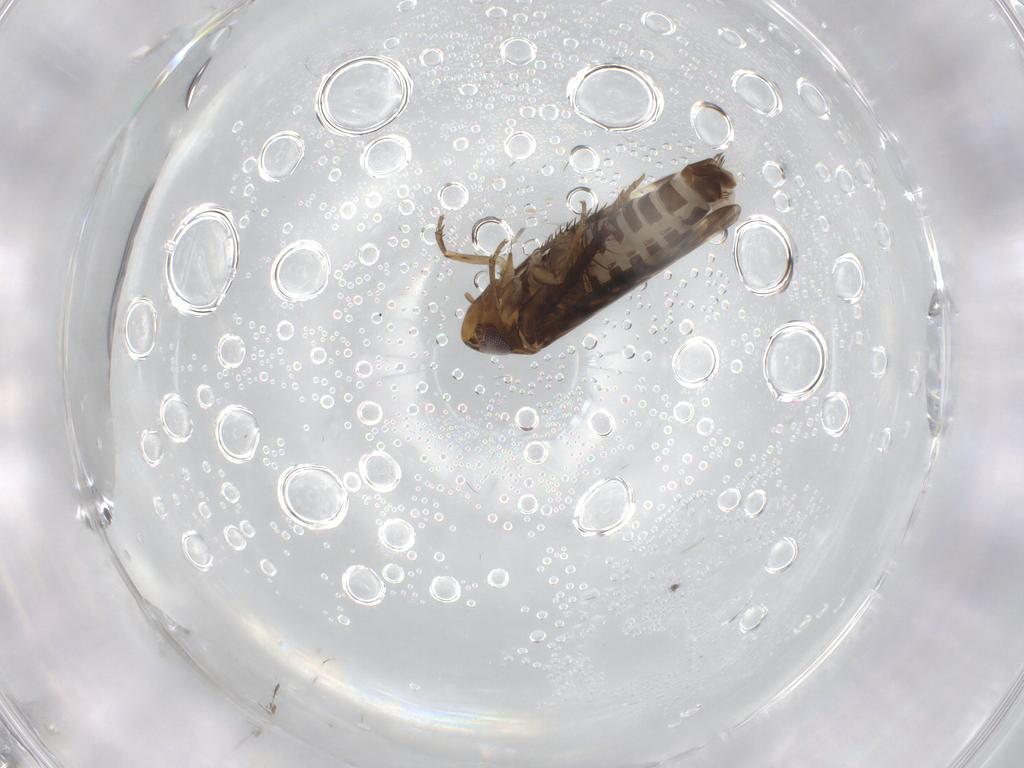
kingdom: Animalia
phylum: Arthropoda
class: Insecta
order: Hemiptera
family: Cicadellidae
